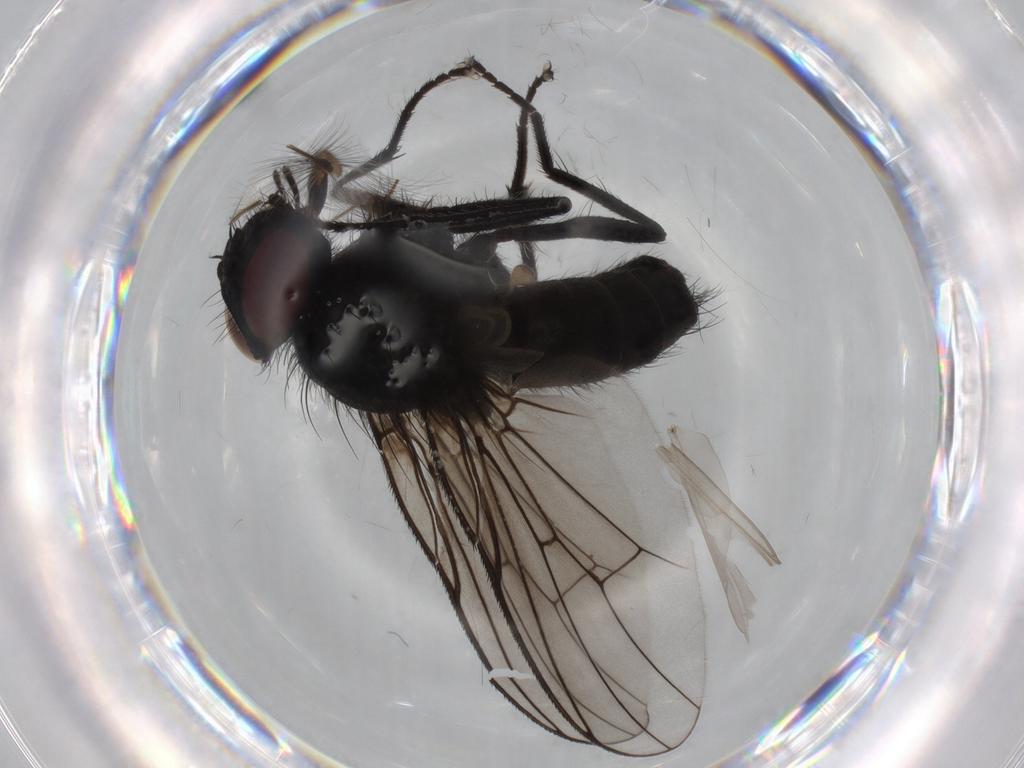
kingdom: Animalia
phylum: Arthropoda
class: Insecta
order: Diptera
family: Muscidae
